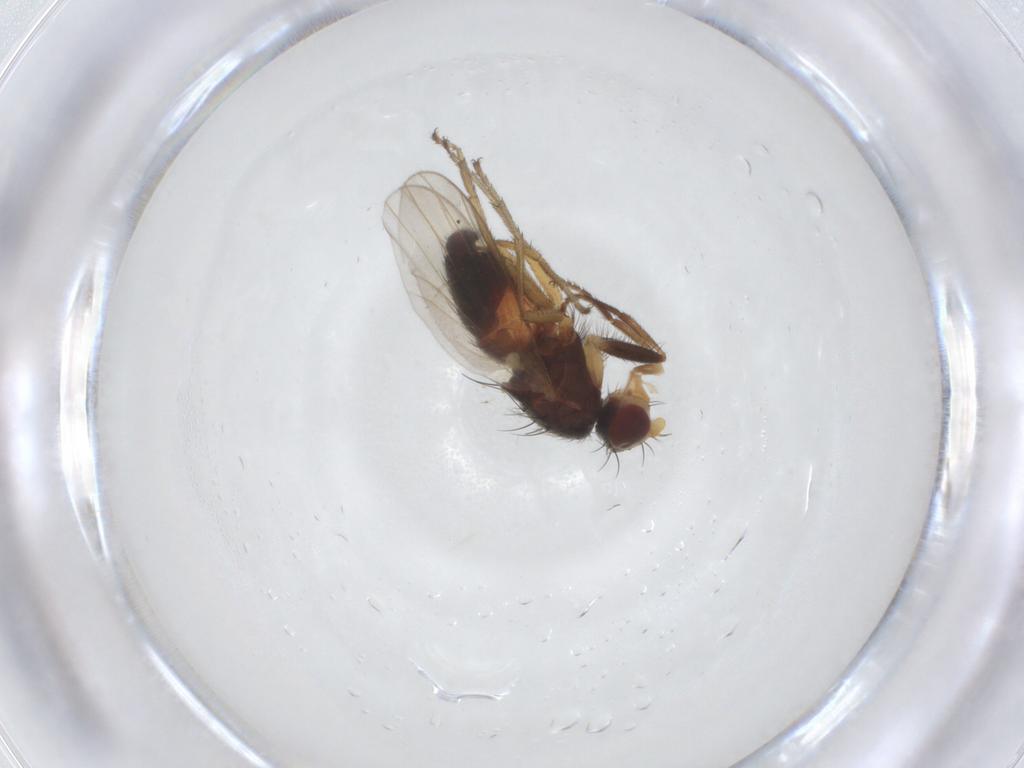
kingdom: Animalia
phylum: Arthropoda
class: Insecta
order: Diptera
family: Heleomyzidae
